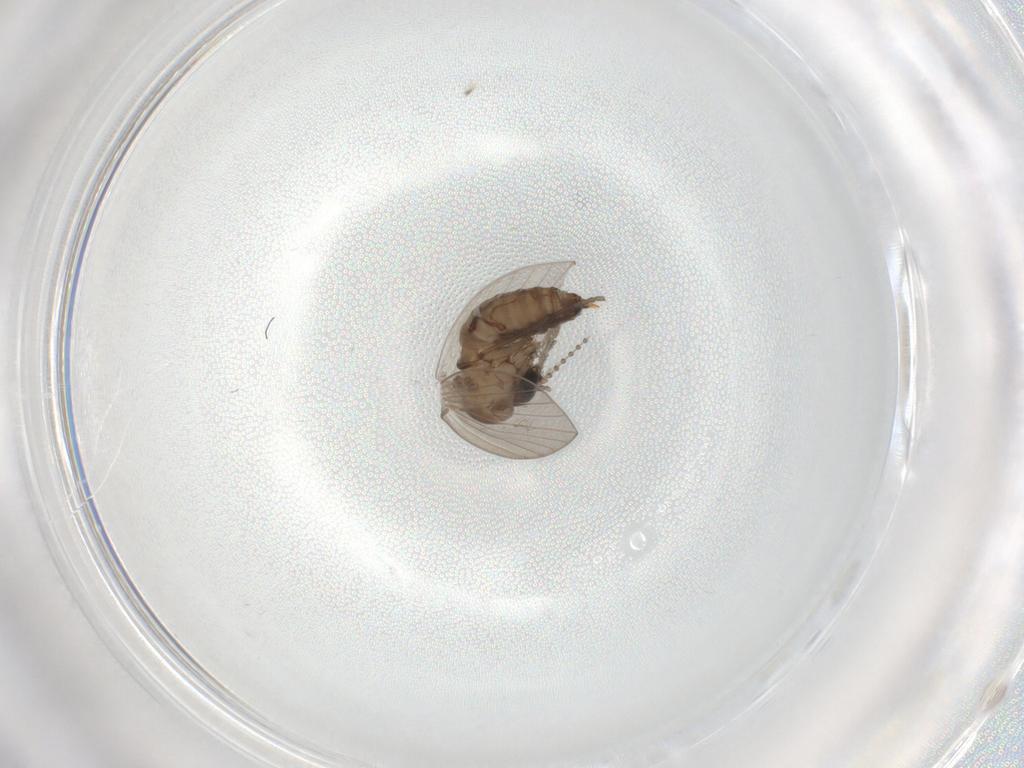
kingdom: Animalia
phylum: Arthropoda
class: Insecta
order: Diptera
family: Psychodidae
